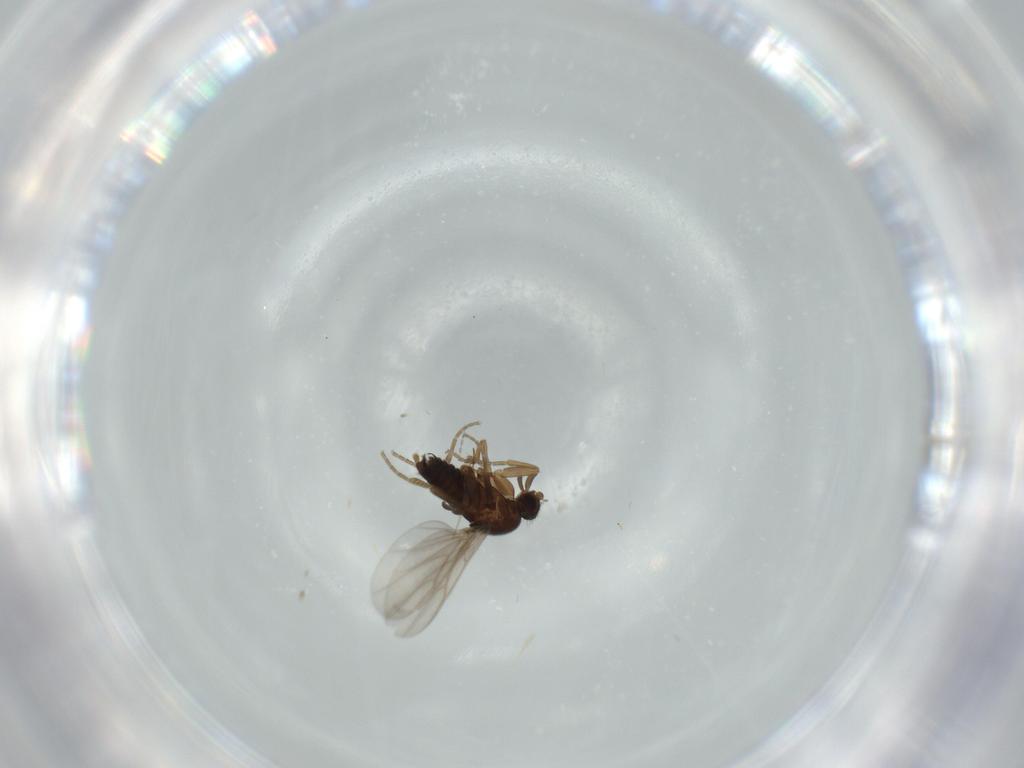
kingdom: Animalia
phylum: Arthropoda
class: Insecta
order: Diptera
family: Cecidomyiidae
